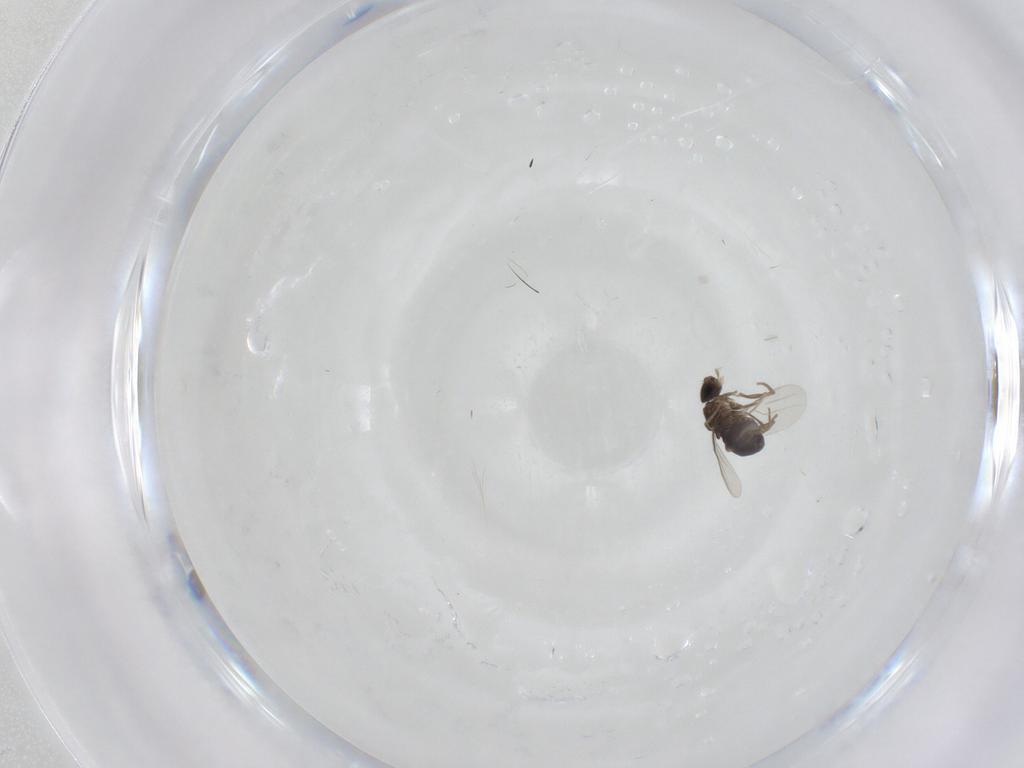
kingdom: Animalia
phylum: Arthropoda
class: Insecta
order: Diptera
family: Phoridae
